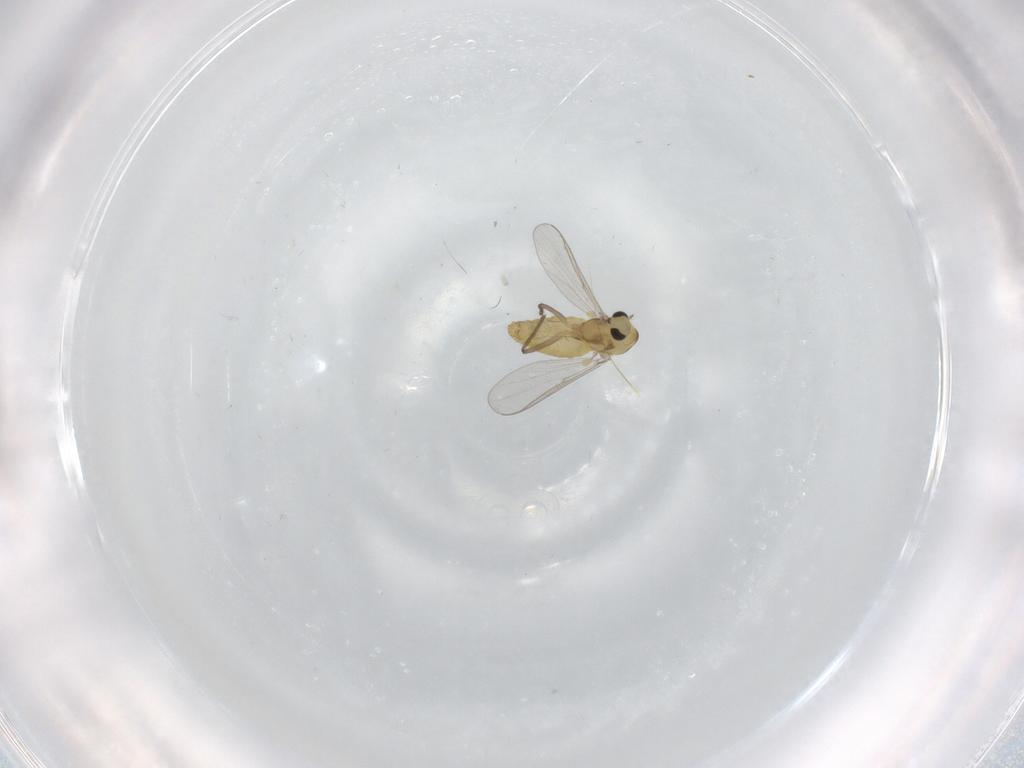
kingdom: Animalia
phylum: Arthropoda
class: Insecta
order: Diptera
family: Chironomidae
